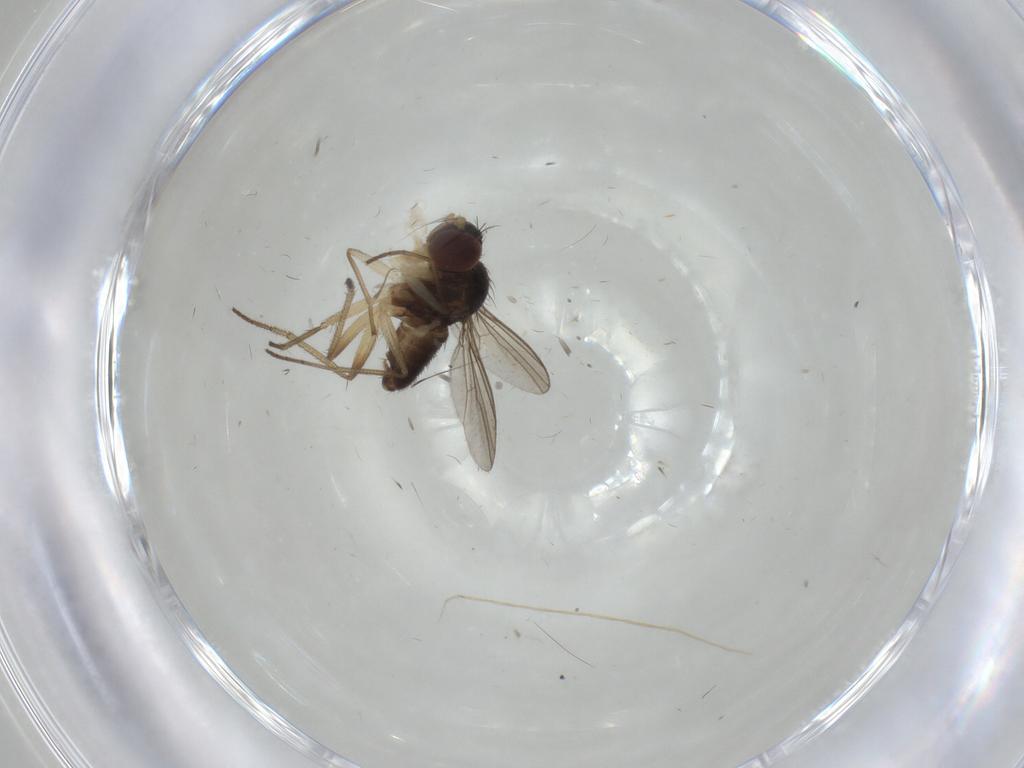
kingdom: Animalia
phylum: Arthropoda
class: Insecta
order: Diptera
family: Dolichopodidae
